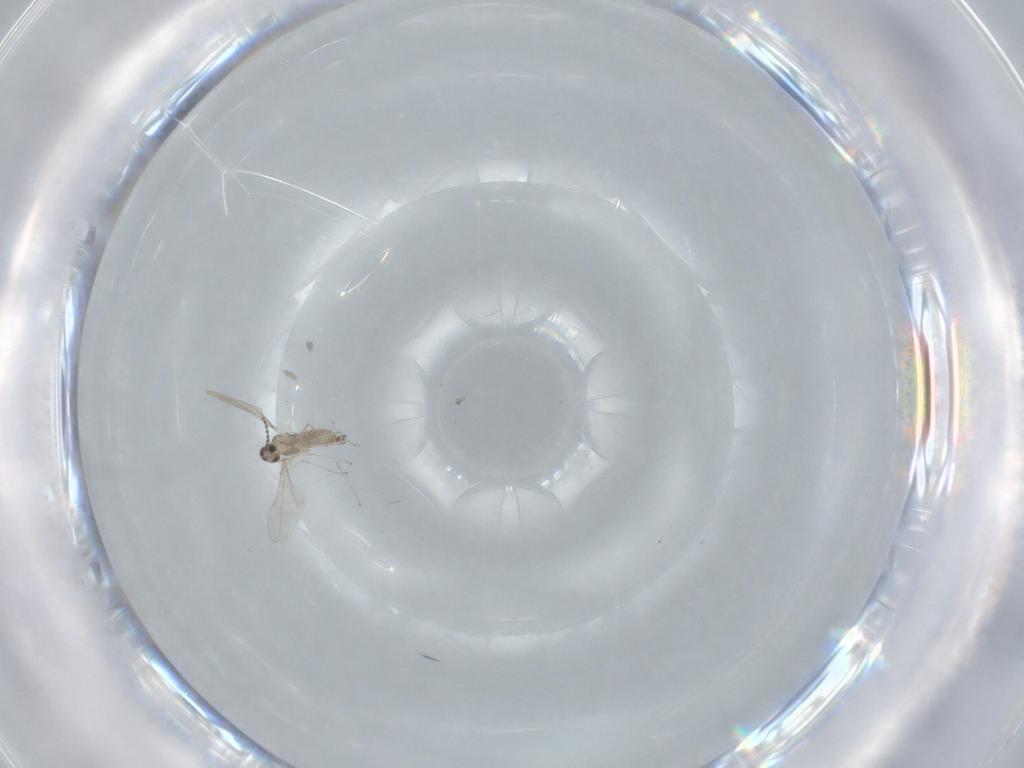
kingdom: Animalia
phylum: Arthropoda
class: Insecta
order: Diptera
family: Sciaridae
